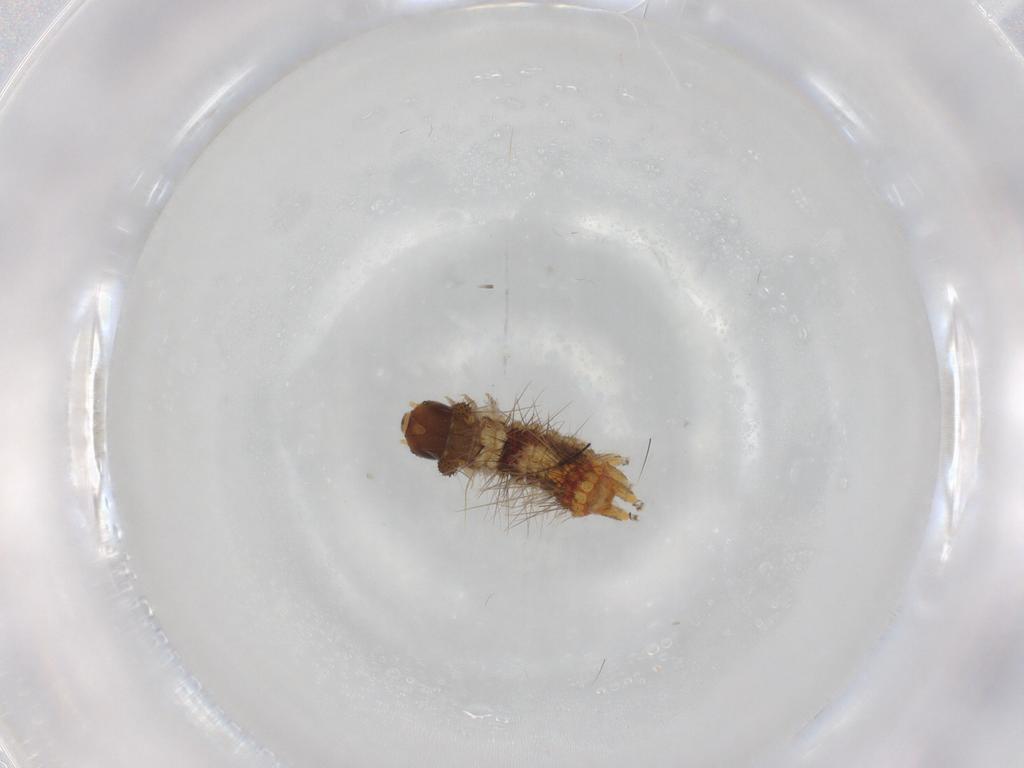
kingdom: Animalia
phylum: Arthropoda
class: Insecta
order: Lepidoptera
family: Erebidae
